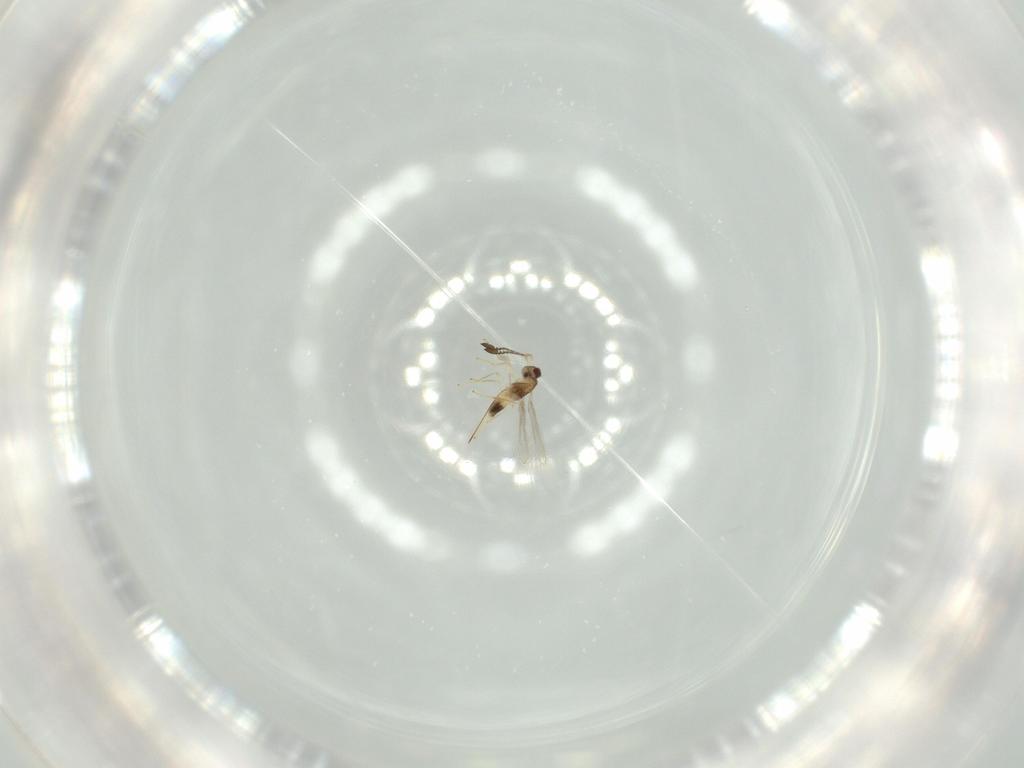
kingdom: Animalia
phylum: Arthropoda
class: Insecta
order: Hymenoptera
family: Mymaridae
